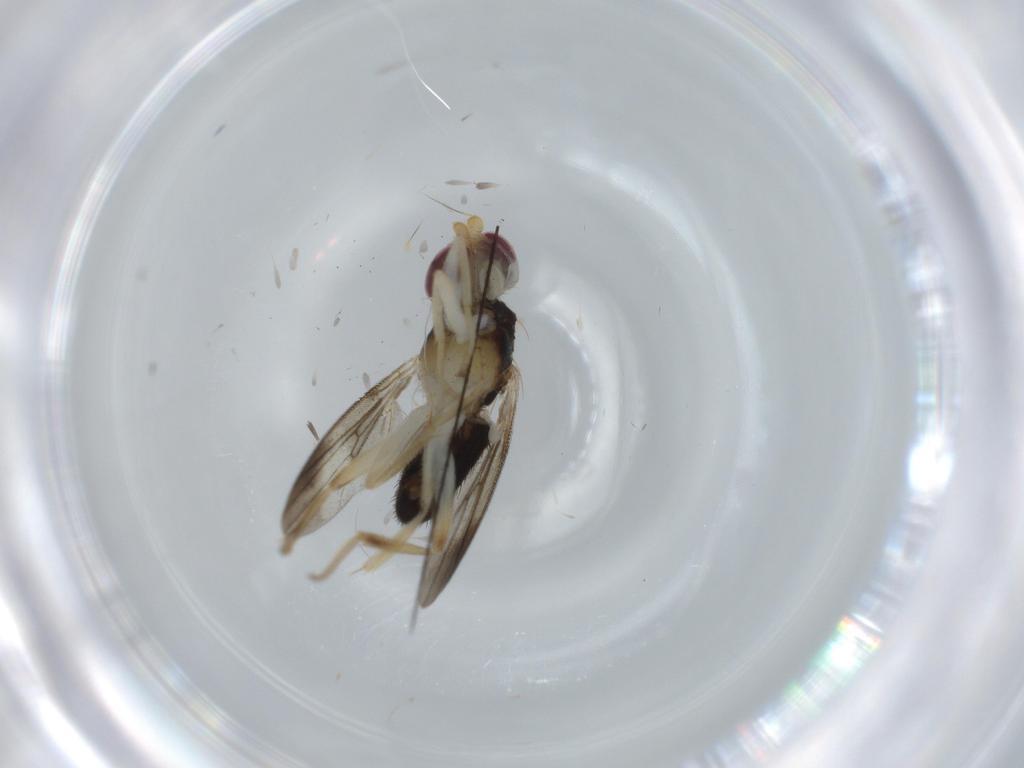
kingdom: Animalia
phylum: Arthropoda
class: Insecta
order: Diptera
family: Clusiidae
